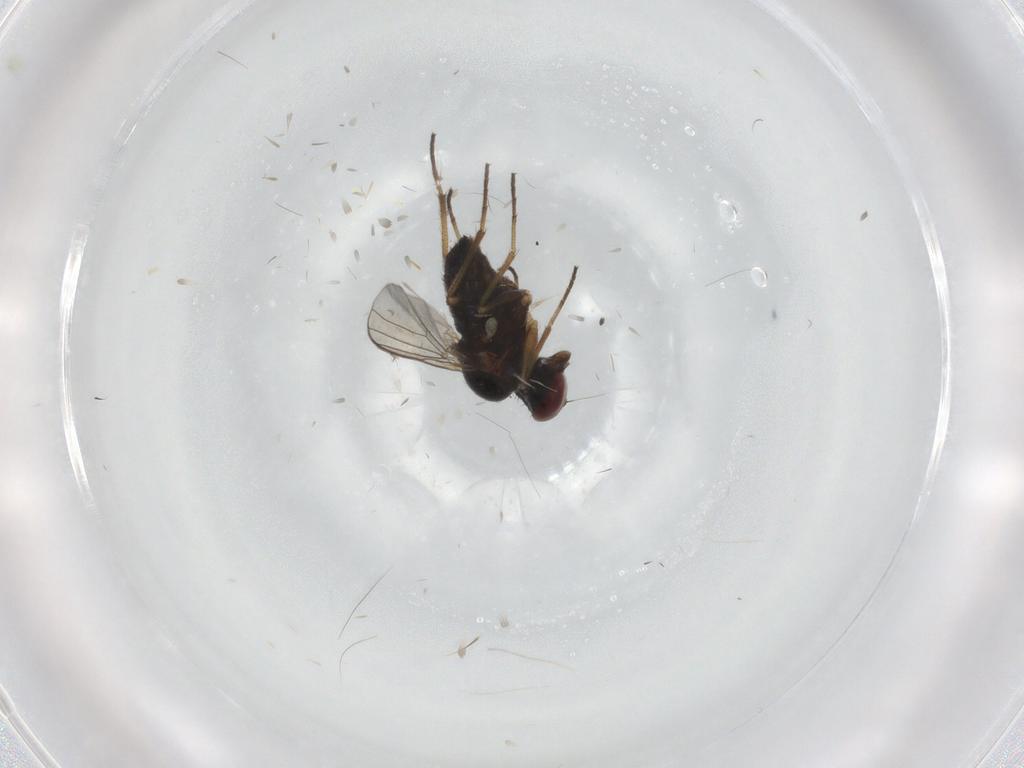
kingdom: Animalia
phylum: Arthropoda
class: Insecta
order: Diptera
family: Dolichopodidae
